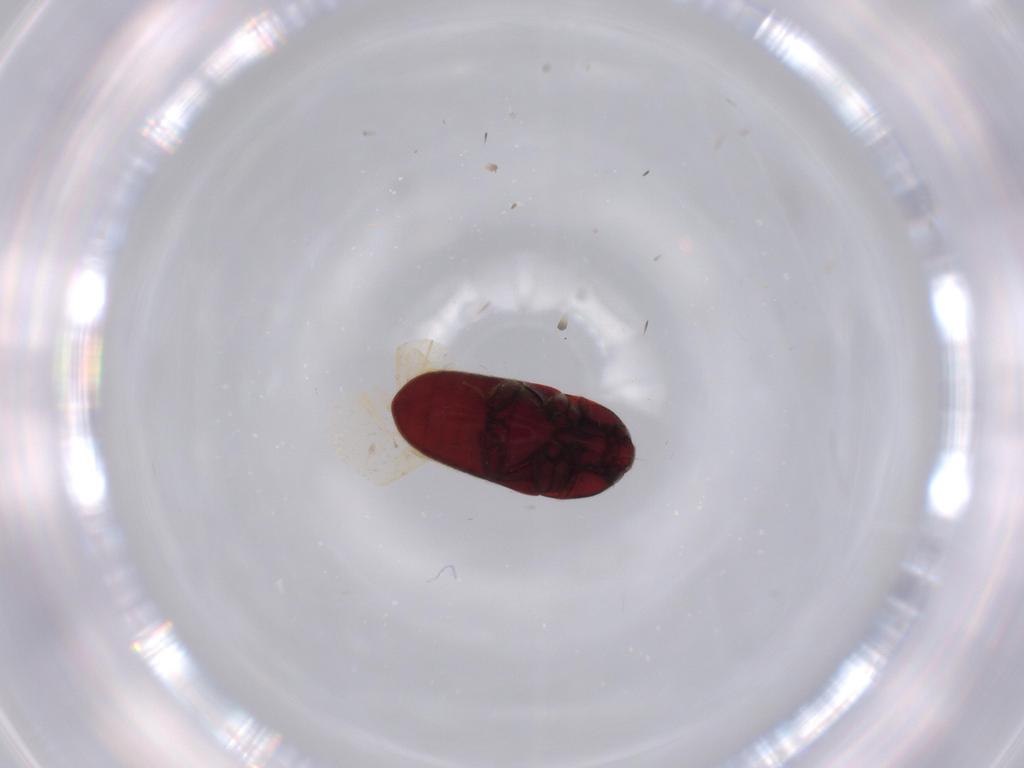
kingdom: Animalia
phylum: Arthropoda
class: Insecta
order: Coleoptera
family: Throscidae
